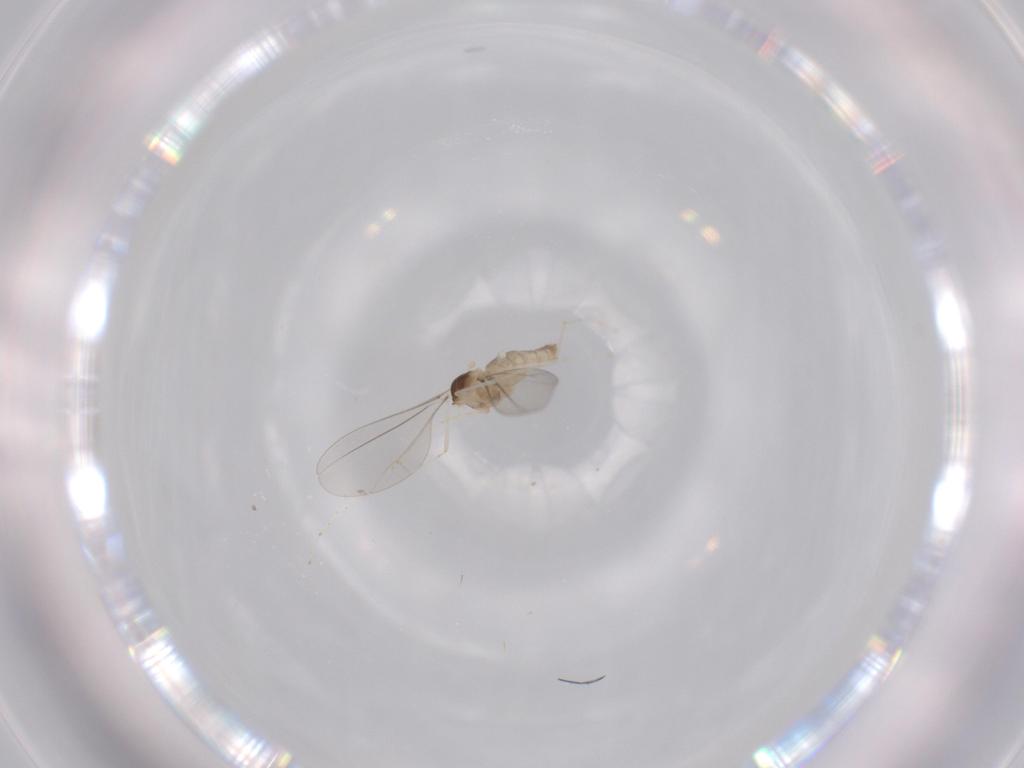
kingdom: Animalia
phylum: Arthropoda
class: Insecta
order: Diptera
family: Cecidomyiidae
